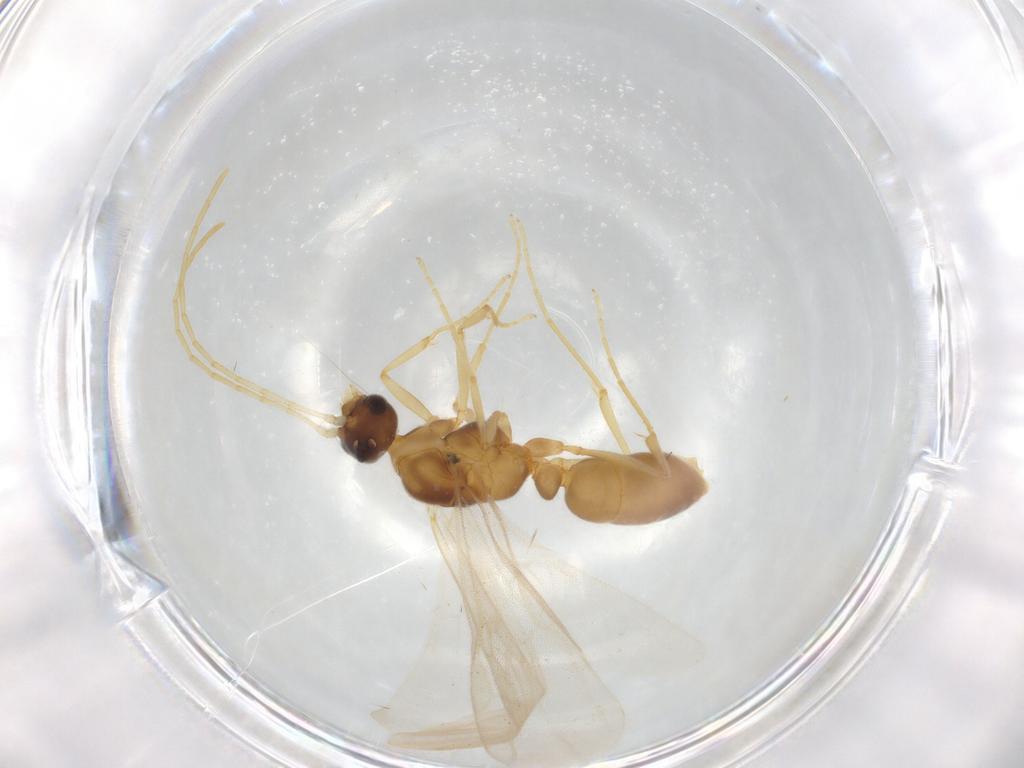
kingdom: Animalia
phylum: Arthropoda
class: Insecta
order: Hymenoptera
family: Formicidae
